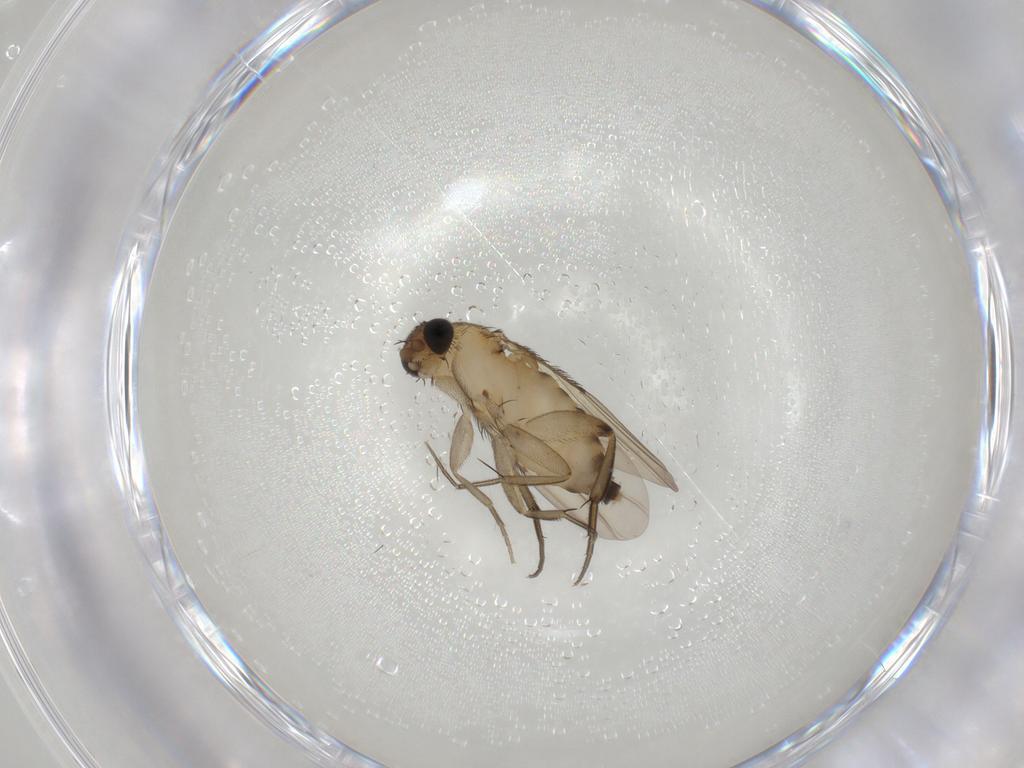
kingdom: Animalia
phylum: Arthropoda
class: Insecta
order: Diptera
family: Phoridae
